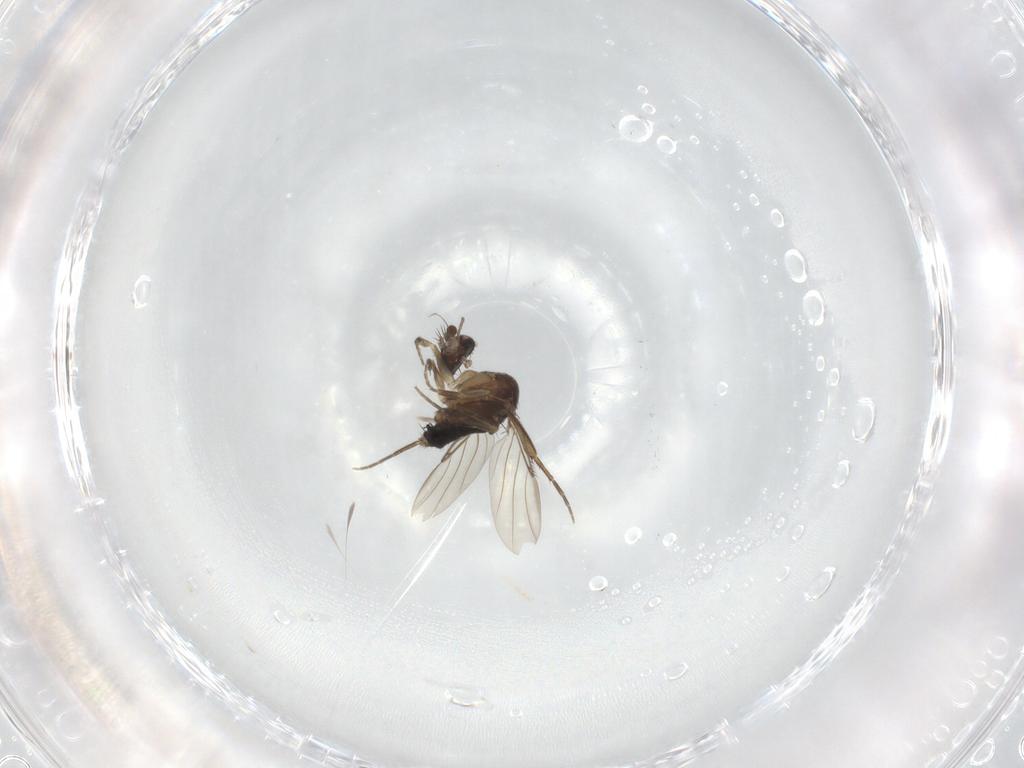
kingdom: Animalia
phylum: Arthropoda
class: Insecta
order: Diptera
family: Phoridae
